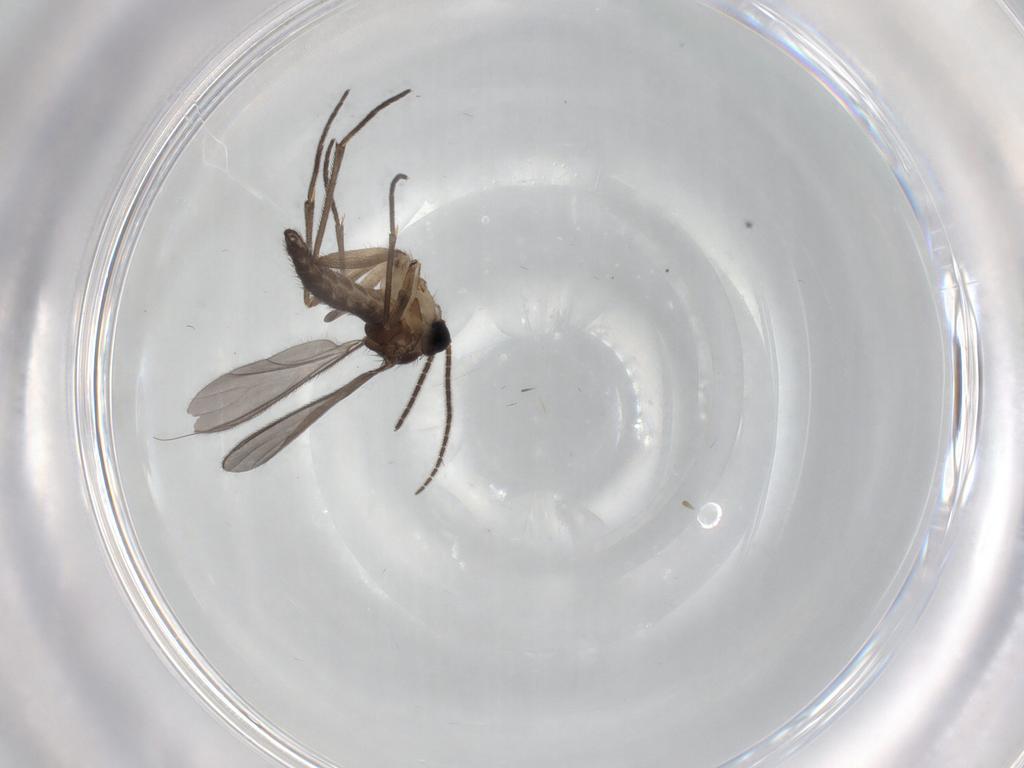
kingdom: Animalia
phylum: Arthropoda
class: Insecta
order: Diptera
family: Sciaridae
